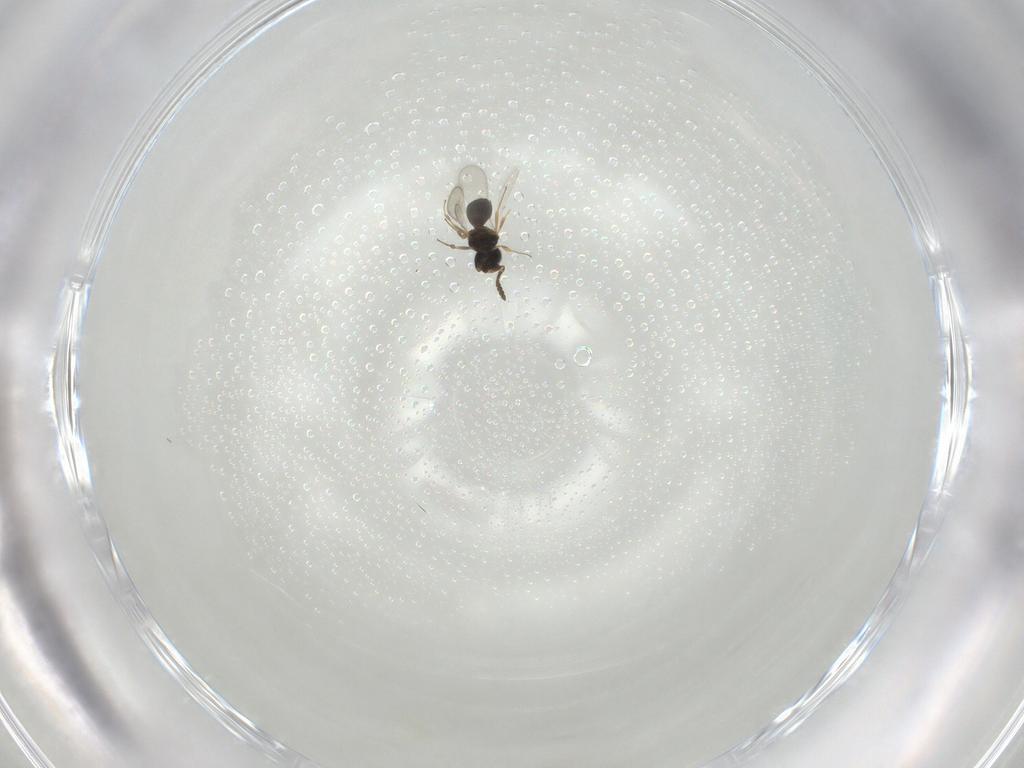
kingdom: Animalia
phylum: Arthropoda
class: Insecta
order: Hymenoptera
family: Scelionidae
